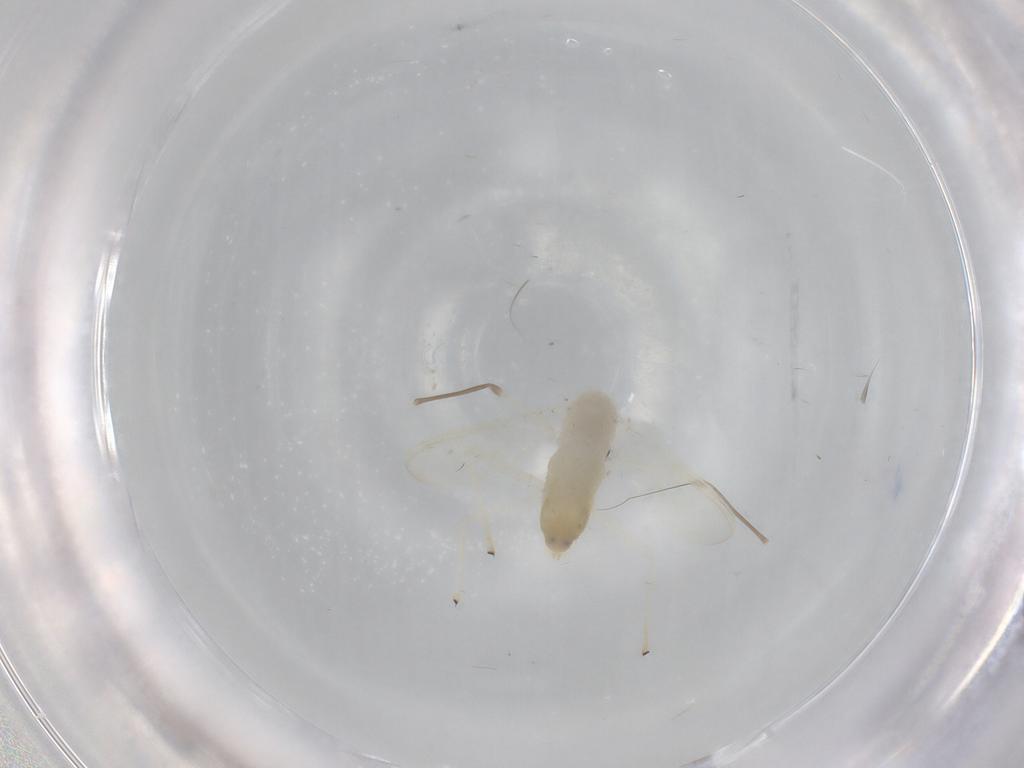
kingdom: Animalia
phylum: Arthropoda
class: Insecta
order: Diptera
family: Chironomidae
